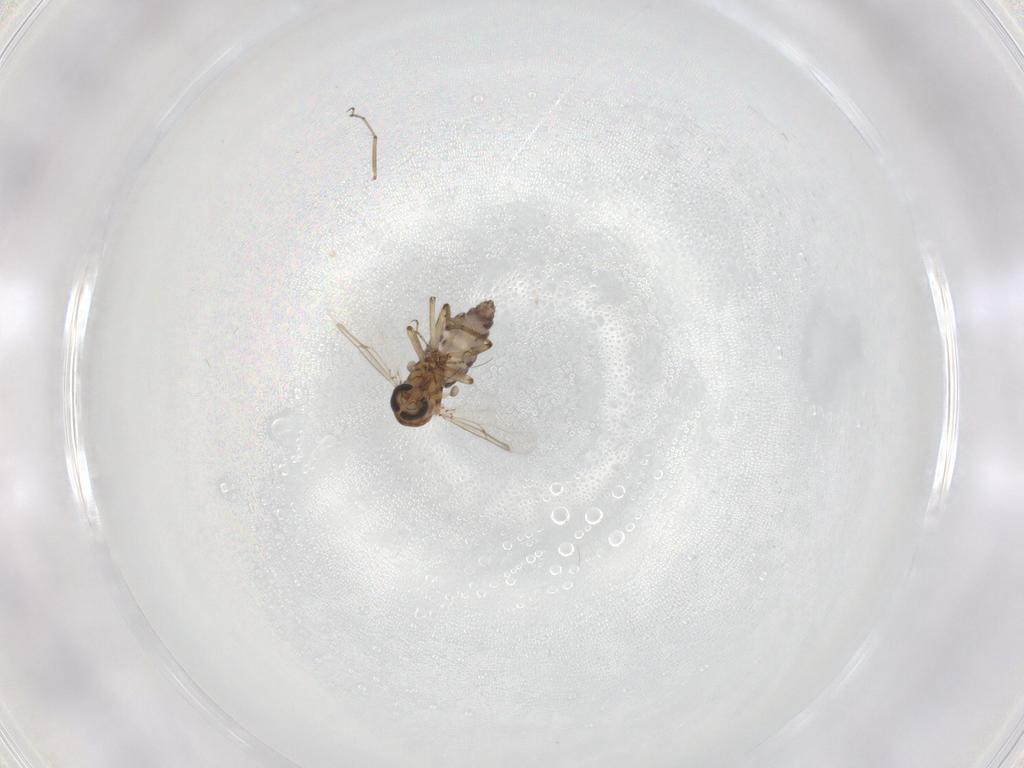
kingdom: Animalia
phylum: Arthropoda
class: Insecta
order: Diptera
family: Ceratopogonidae
